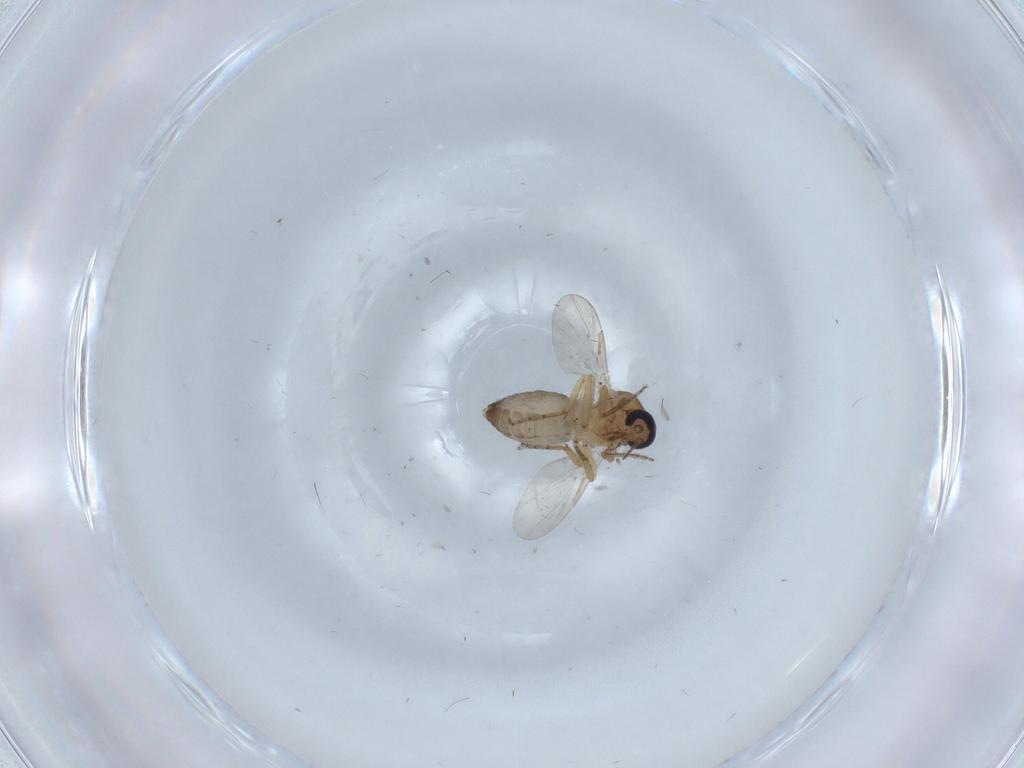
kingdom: Animalia
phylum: Arthropoda
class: Insecta
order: Diptera
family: Ceratopogonidae
